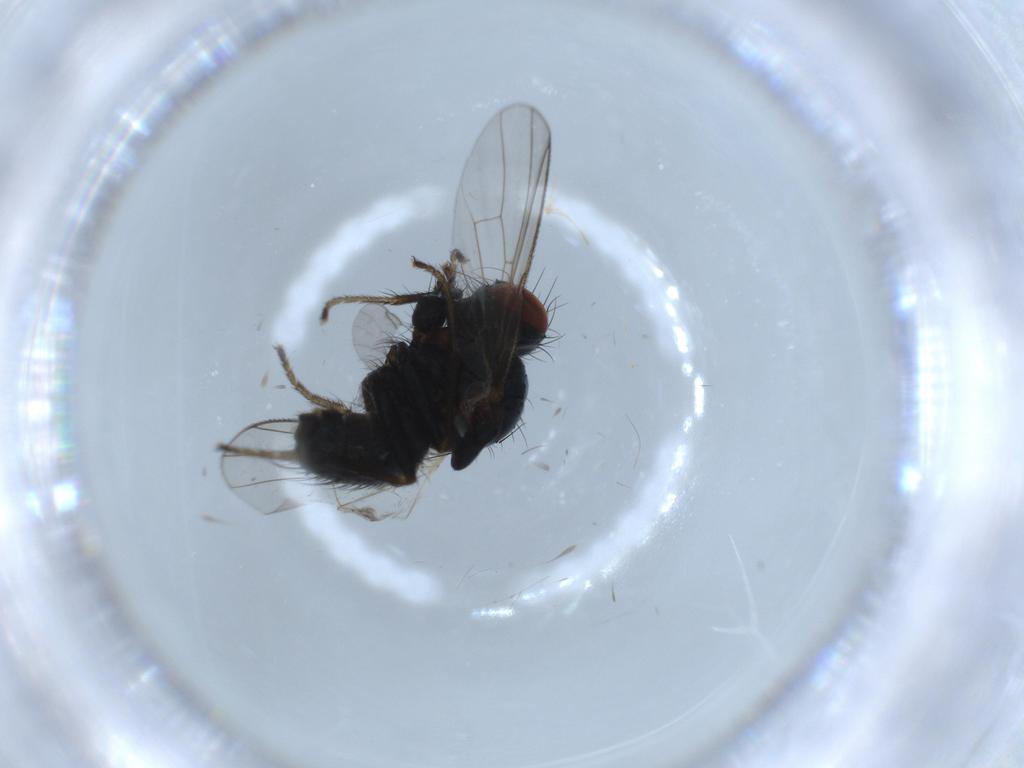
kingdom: Animalia
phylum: Arthropoda
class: Insecta
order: Diptera
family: Muscidae
